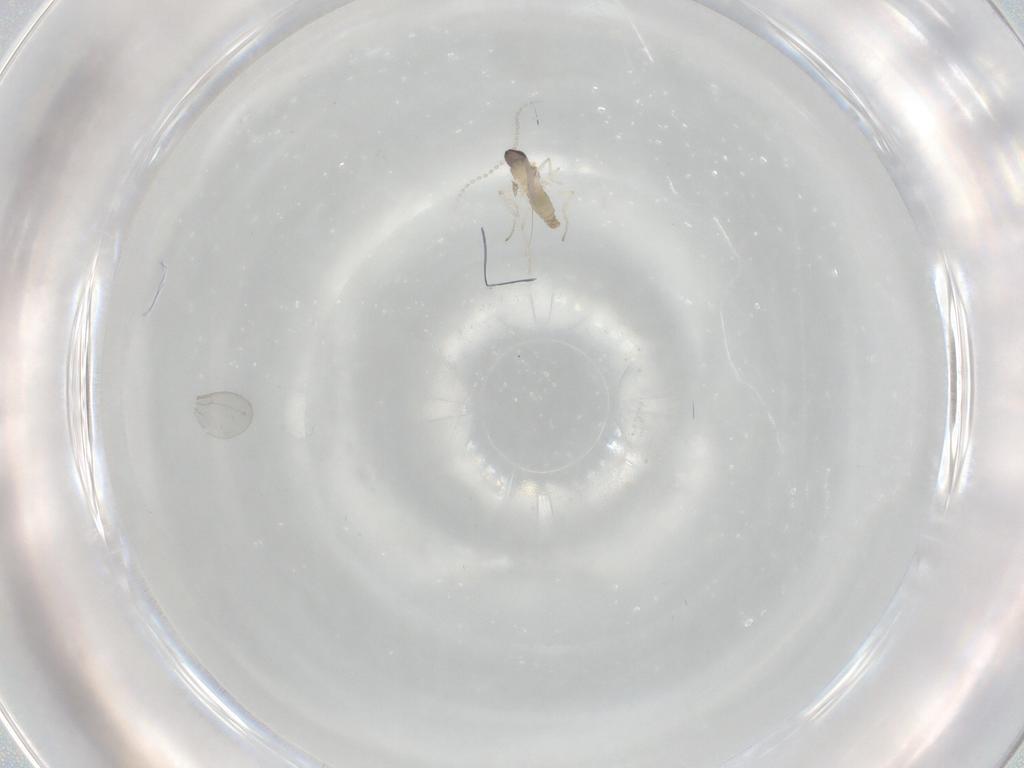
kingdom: Animalia
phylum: Arthropoda
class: Insecta
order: Diptera
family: Cecidomyiidae
